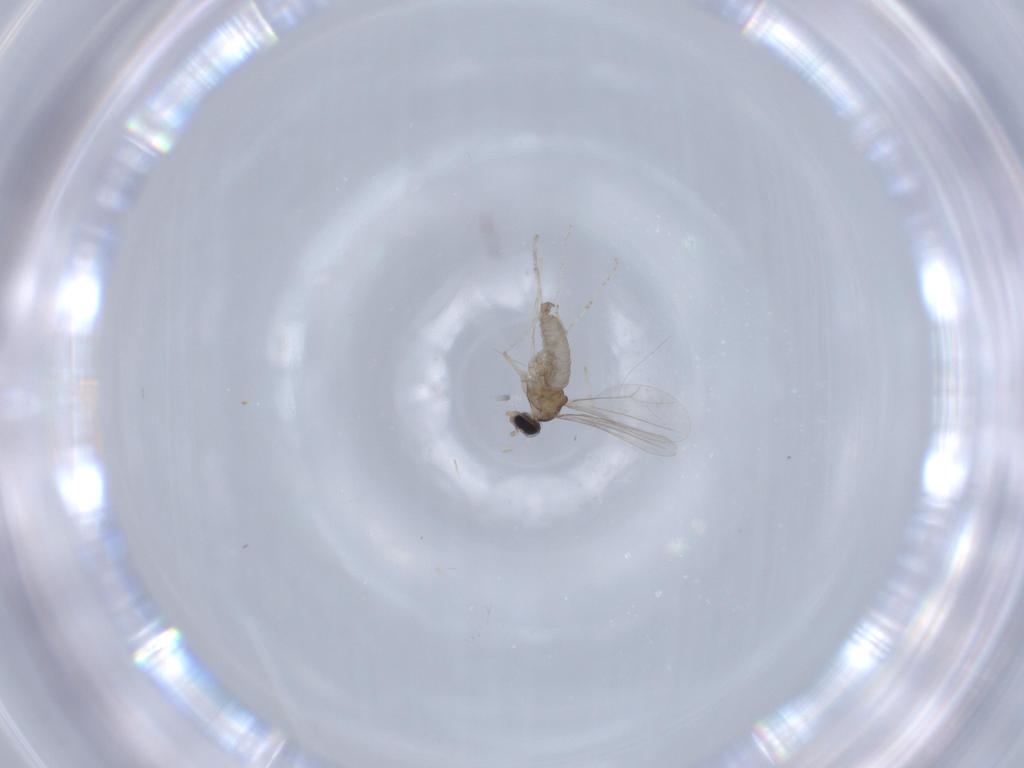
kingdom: Animalia
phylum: Arthropoda
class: Insecta
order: Diptera
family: Cecidomyiidae
